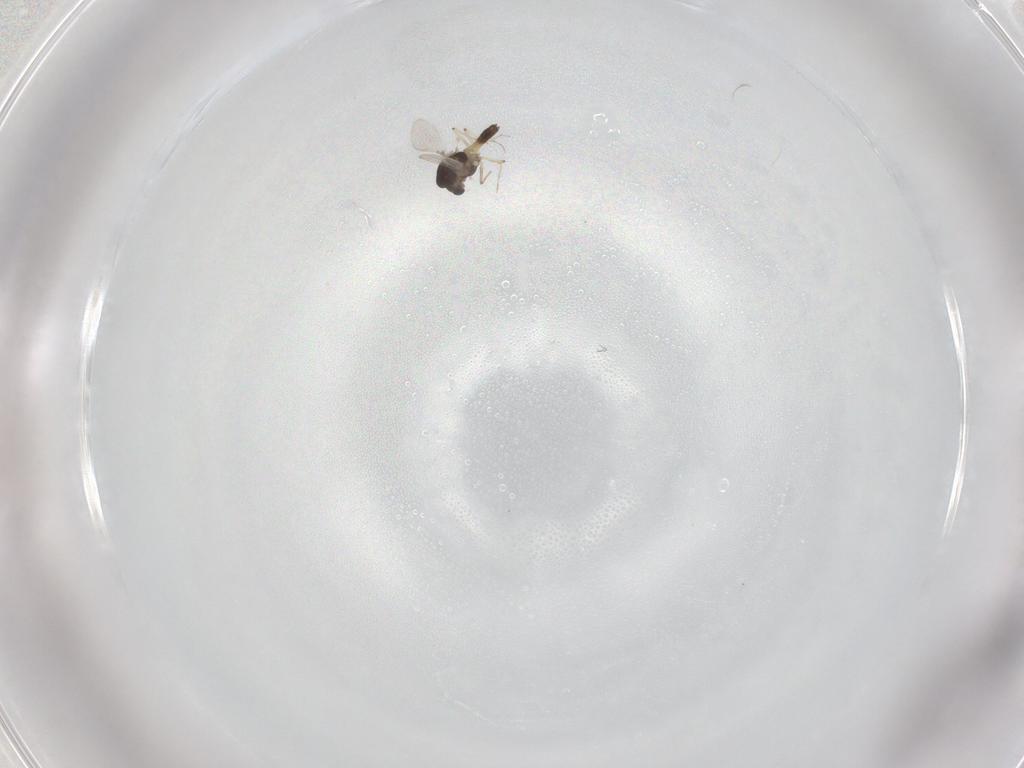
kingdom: Animalia
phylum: Arthropoda
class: Insecta
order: Diptera
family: Chironomidae
